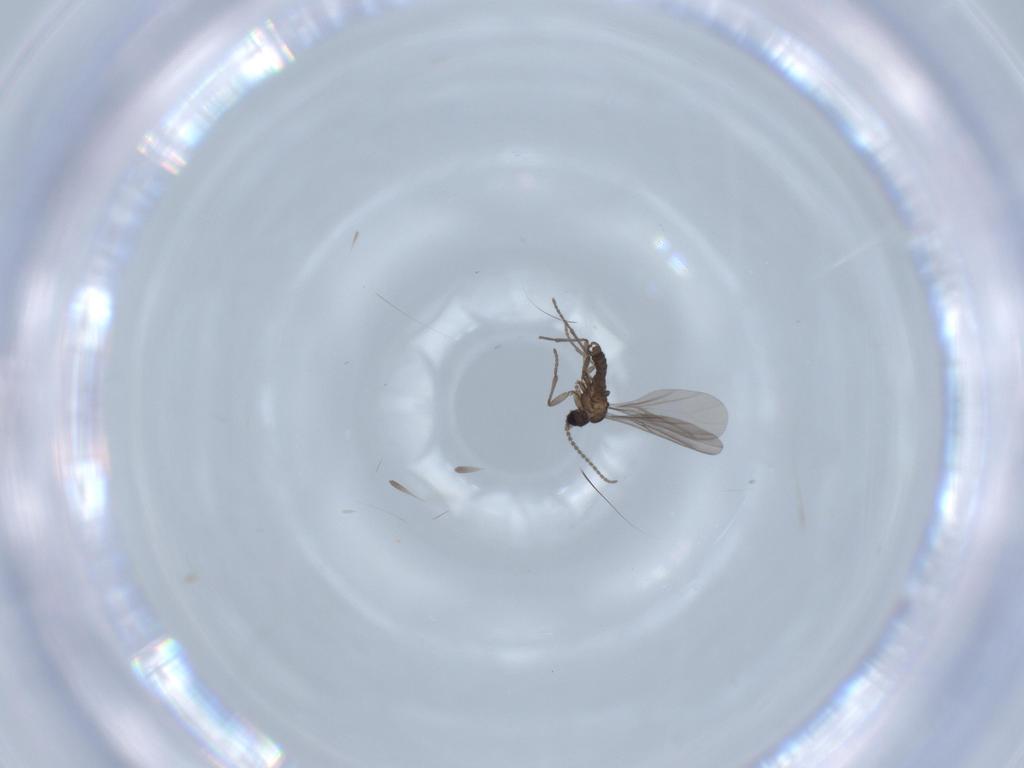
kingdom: Animalia
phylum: Arthropoda
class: Insecta
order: Diptera
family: Limoniidae
